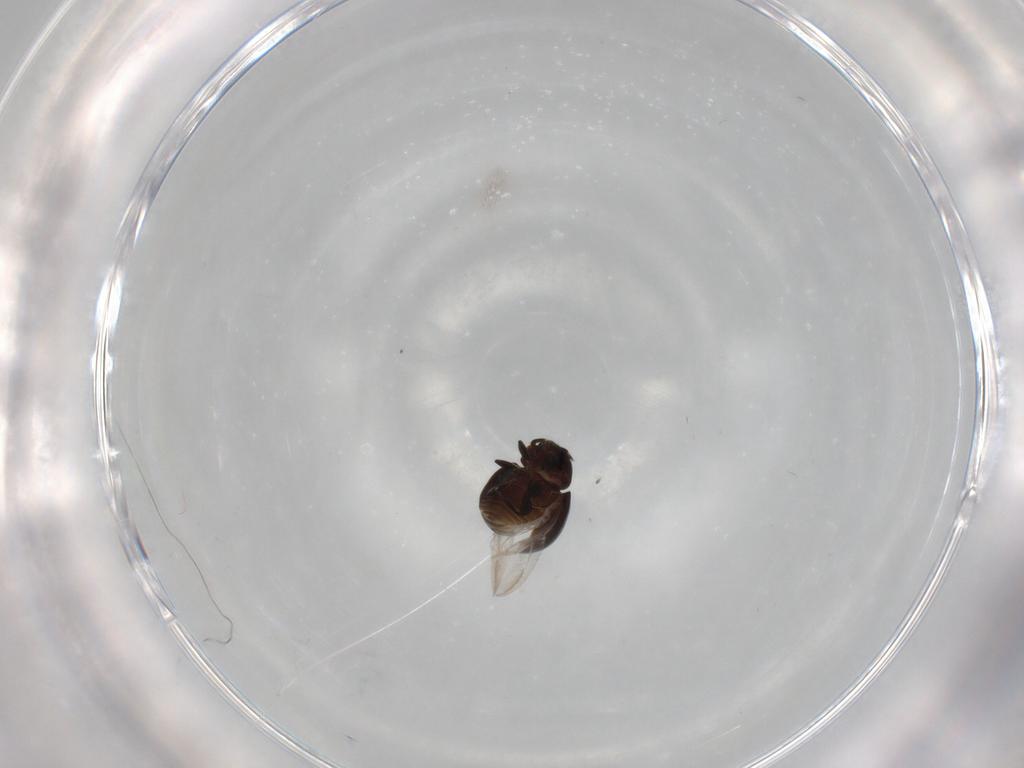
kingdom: Animalia
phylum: Arthropoda
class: Insecta
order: Coleoptera
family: Coccinellidae
